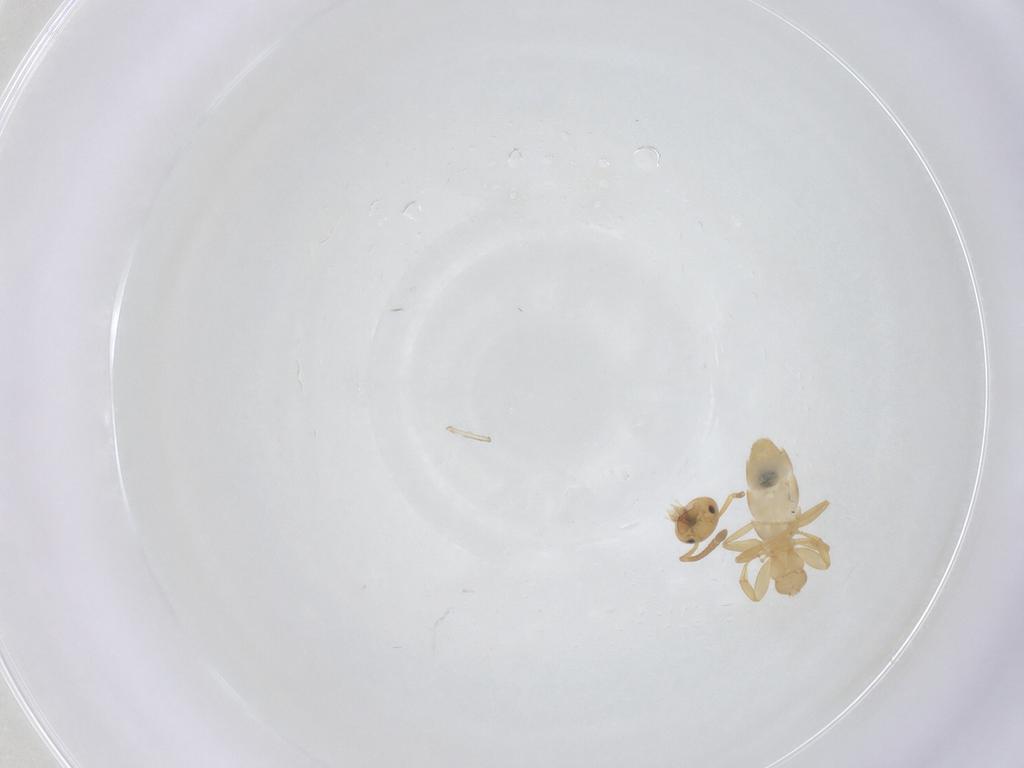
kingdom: Animalia
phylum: Arthropoda
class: Insecta
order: Hymenoptera
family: Formicidae
